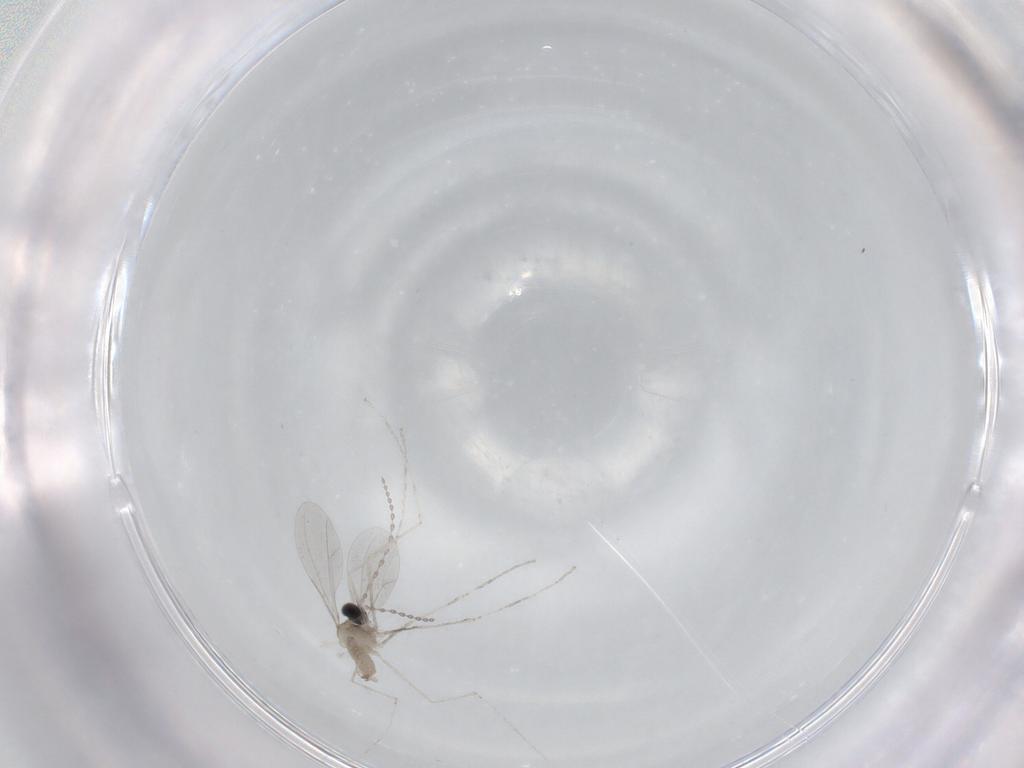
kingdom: Animalia
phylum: Arthropoda
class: Insecta
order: Diptera
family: Cecidomyiidae
